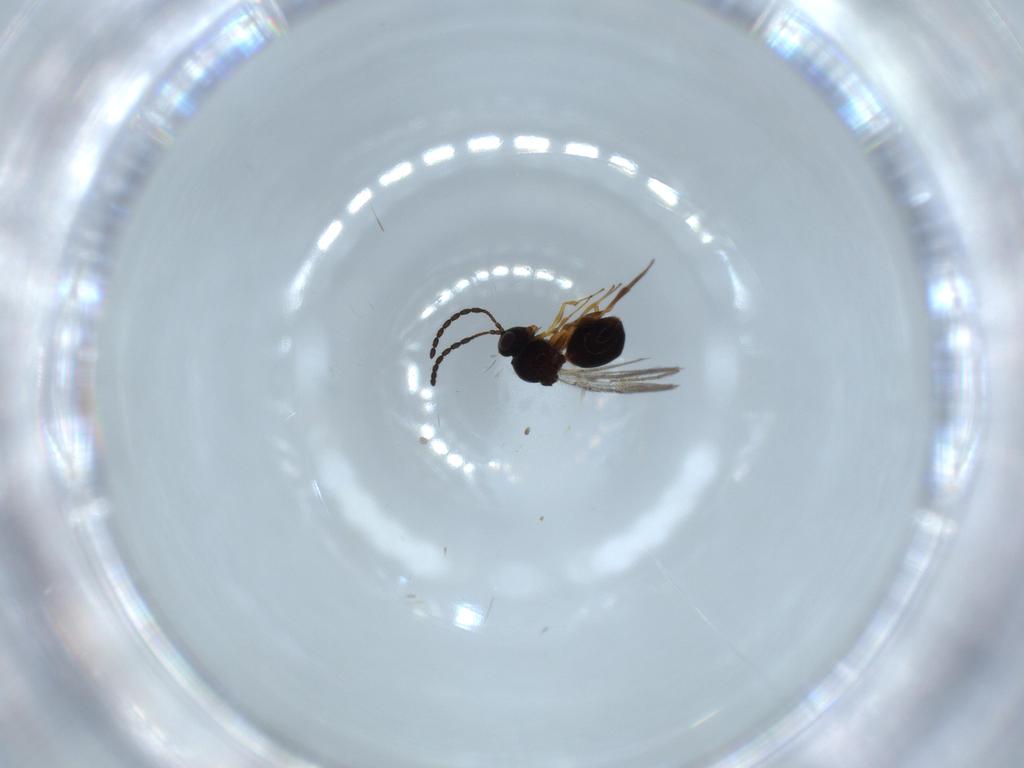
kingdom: Animalia
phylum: Arthropoda
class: Insecta
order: Hymenoptera
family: Figitidae
